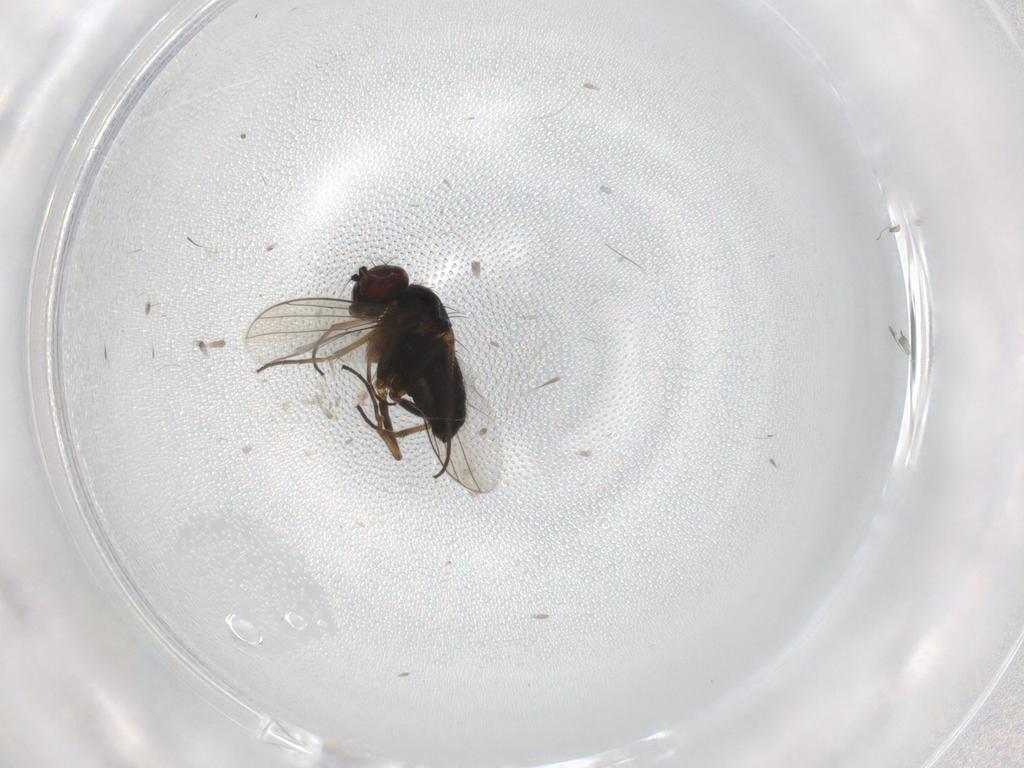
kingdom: Animalia
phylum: Arthropoda
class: Insecta
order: Diptera
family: Dolichopodidae
